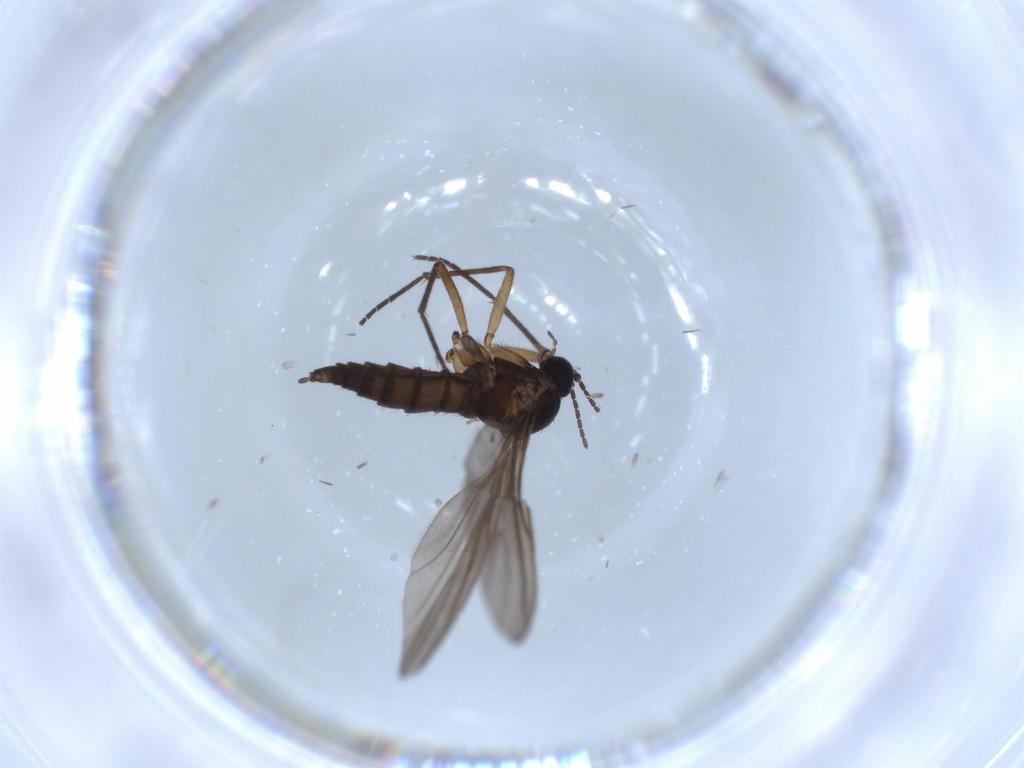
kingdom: Animalia
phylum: Arthropoda
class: Insecta
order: Diptera
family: Sciaridae
